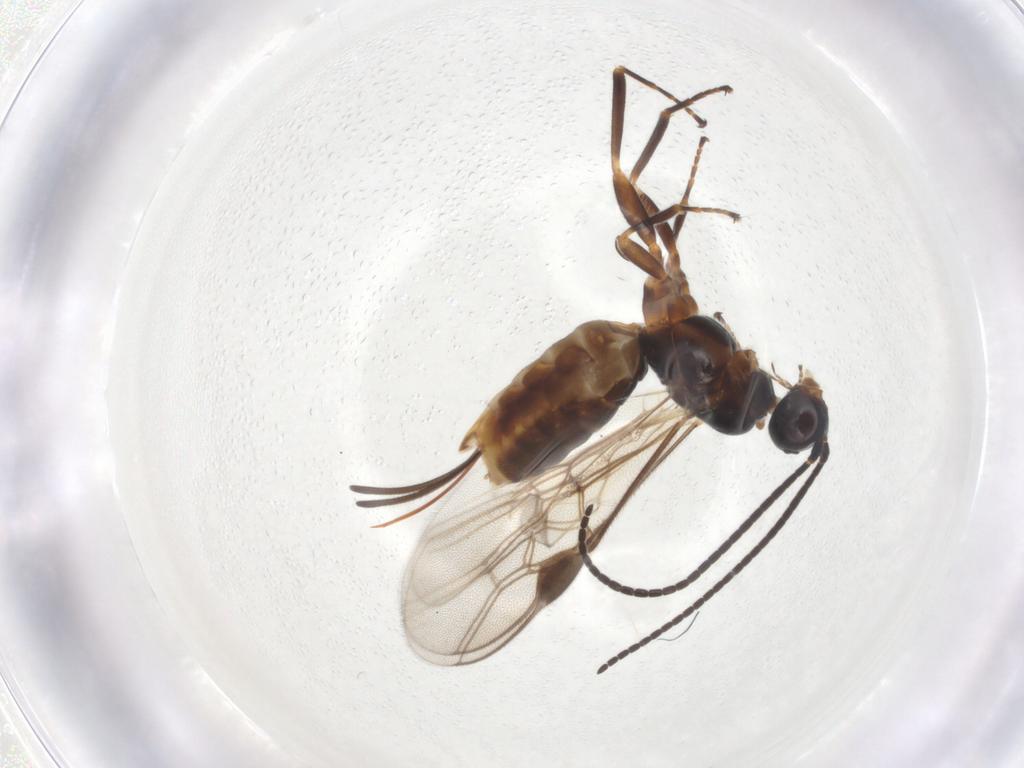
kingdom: Animalia
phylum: Arthropoda
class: Insecta
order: Hymenoptera
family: Braconidae
